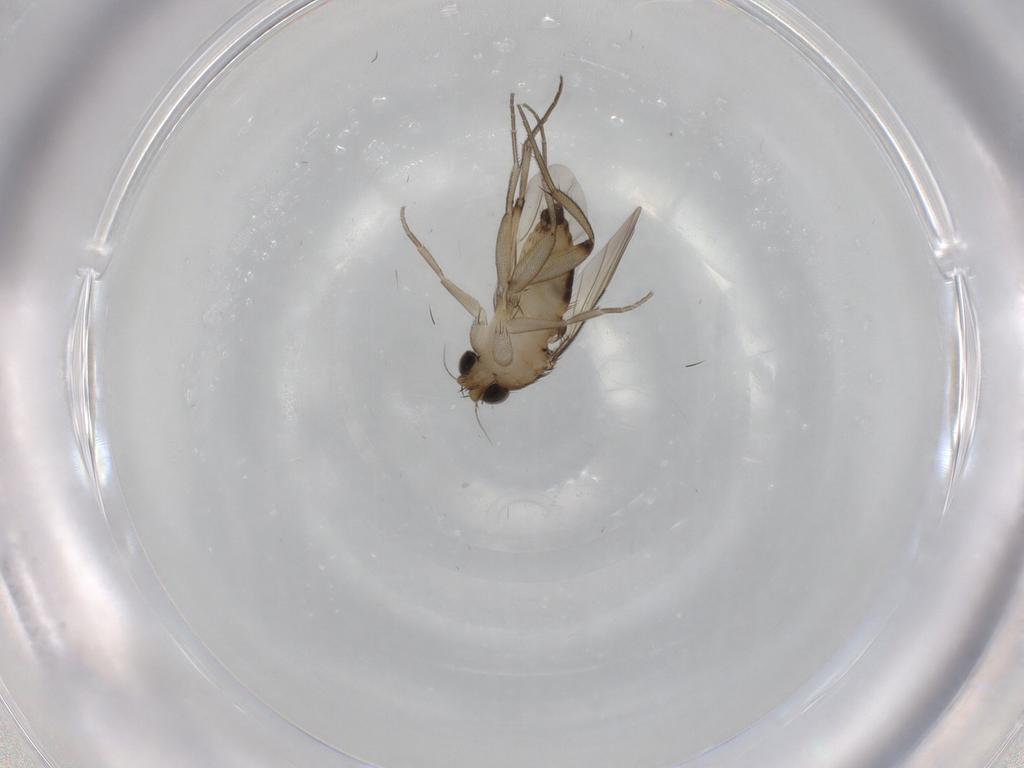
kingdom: Animalia
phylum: Arthropoda
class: Insecta
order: Diptera
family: Phoridae
